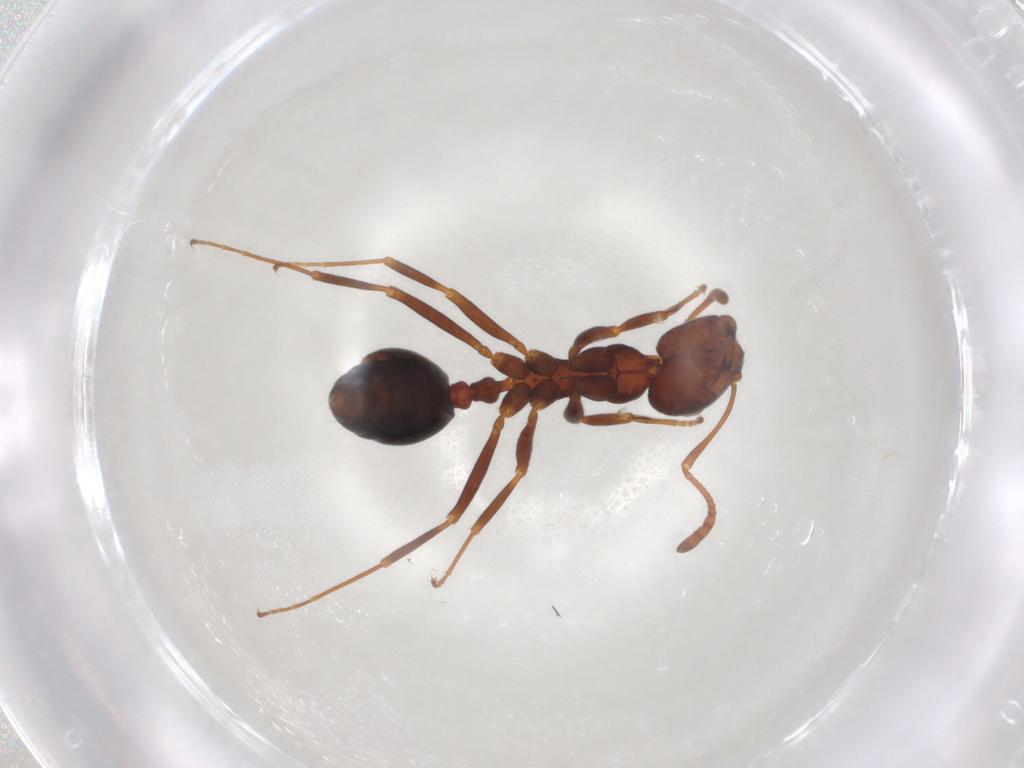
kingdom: Animalia
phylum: Arthropoda
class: Insecta
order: Hymenoptera
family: Formicidae
